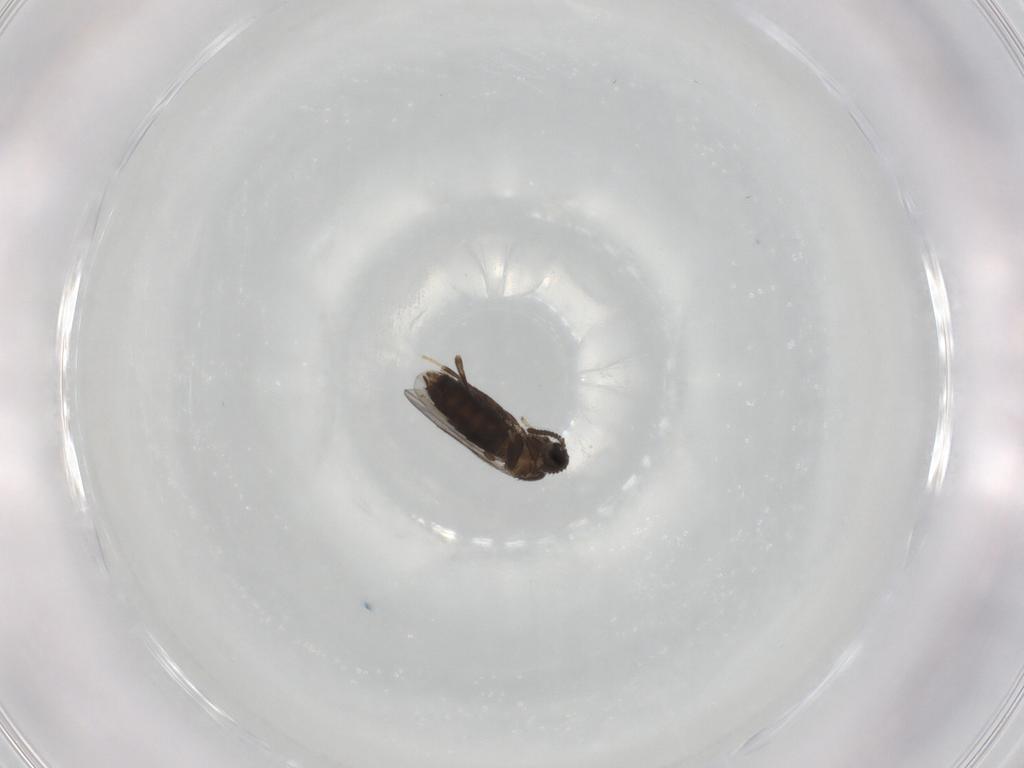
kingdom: Animalia
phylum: Arthropoda
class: Insecta
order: Diptera
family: Scatopsidae
